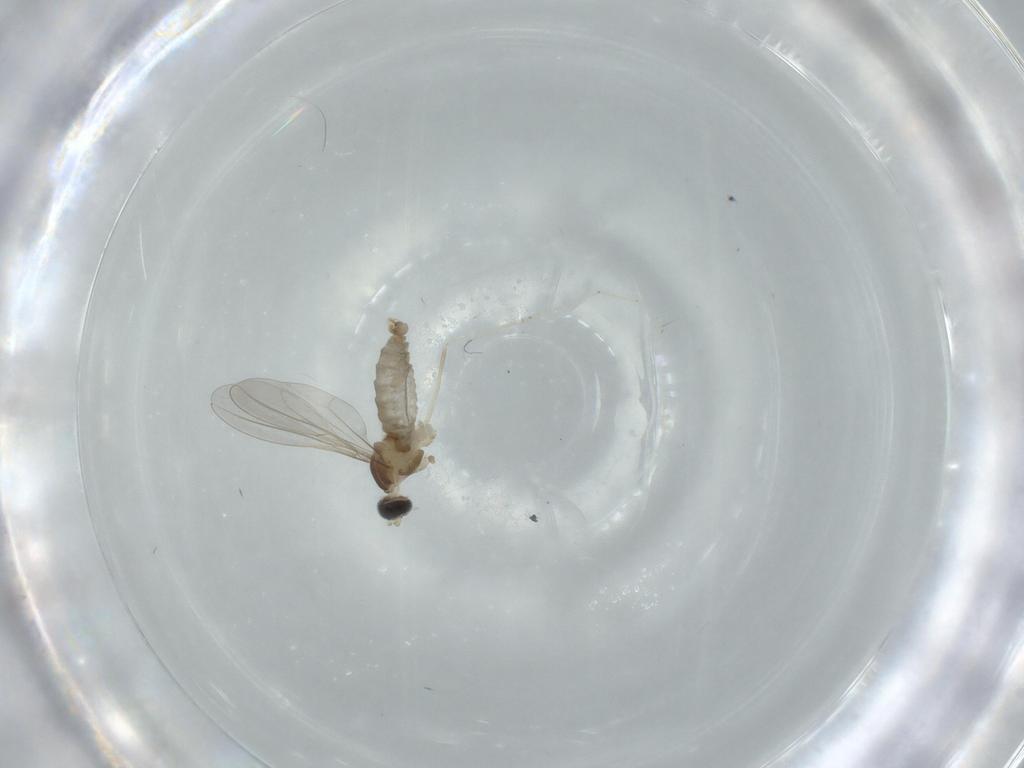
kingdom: Animalia
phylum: Arthropoda
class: Insecta
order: Diptera
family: Cecidomyiidae
